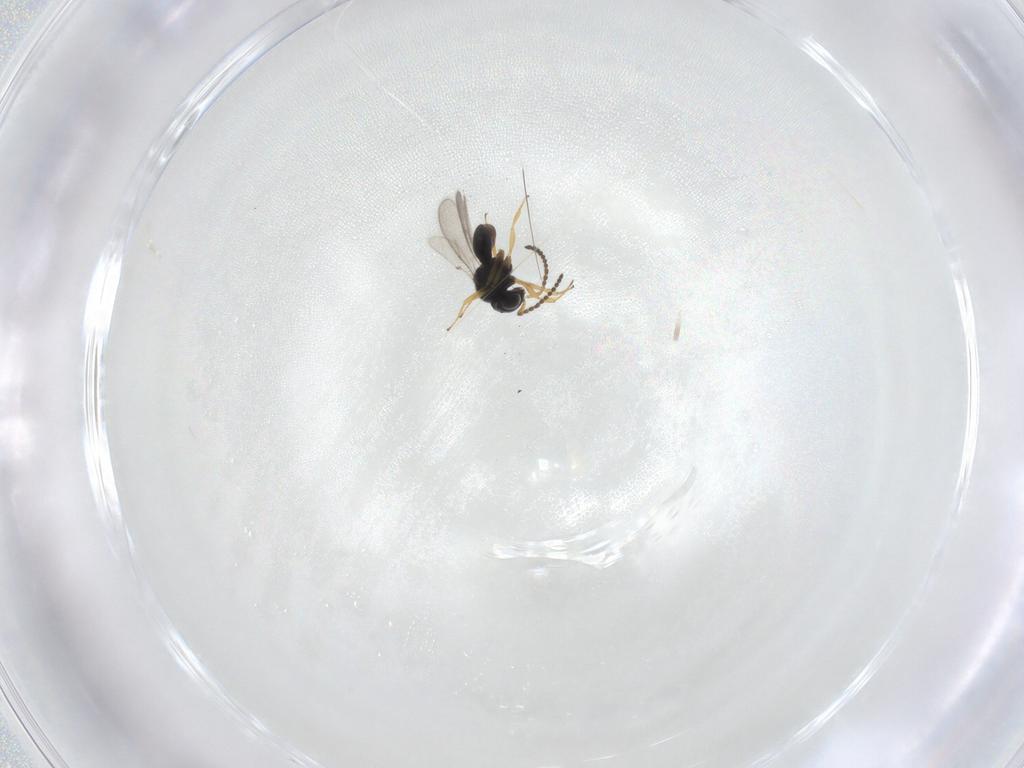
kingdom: Animalia
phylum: Arthropoda
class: Insecta
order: Hymenoptera
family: Scelionidae
